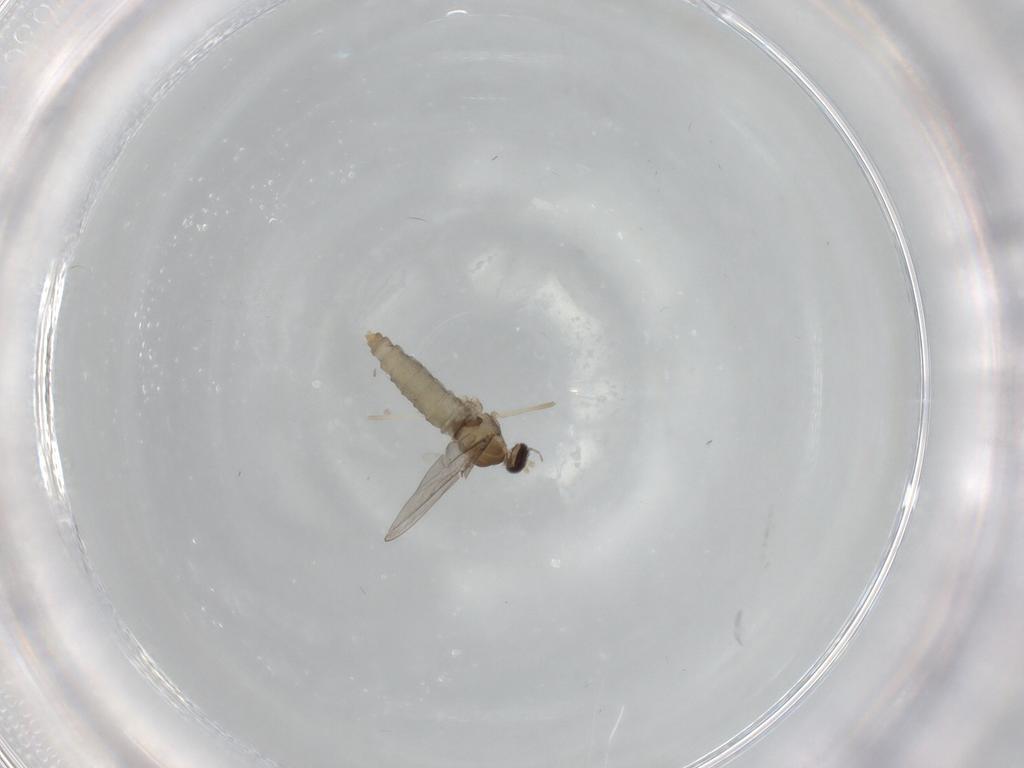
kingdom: Animalia
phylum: Arthropoda
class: Insecta
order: Diptera
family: Cecidomyiidae
